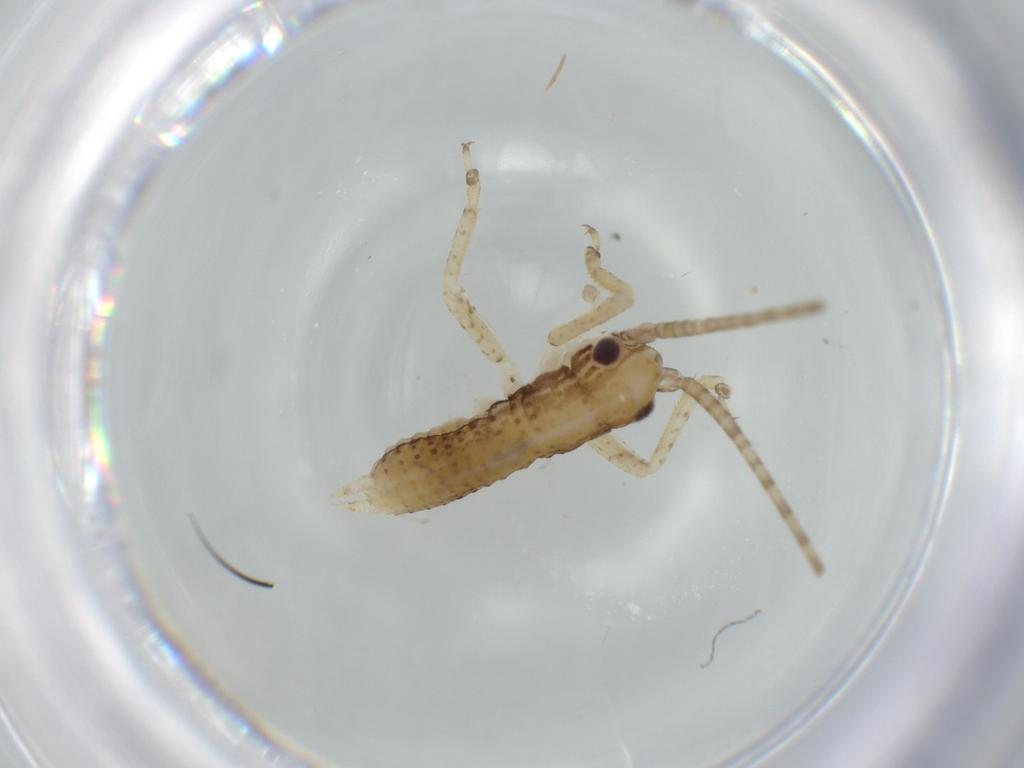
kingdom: Animalia
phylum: Arthropoda
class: Insecta
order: Orthoptera
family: Gryllidae
